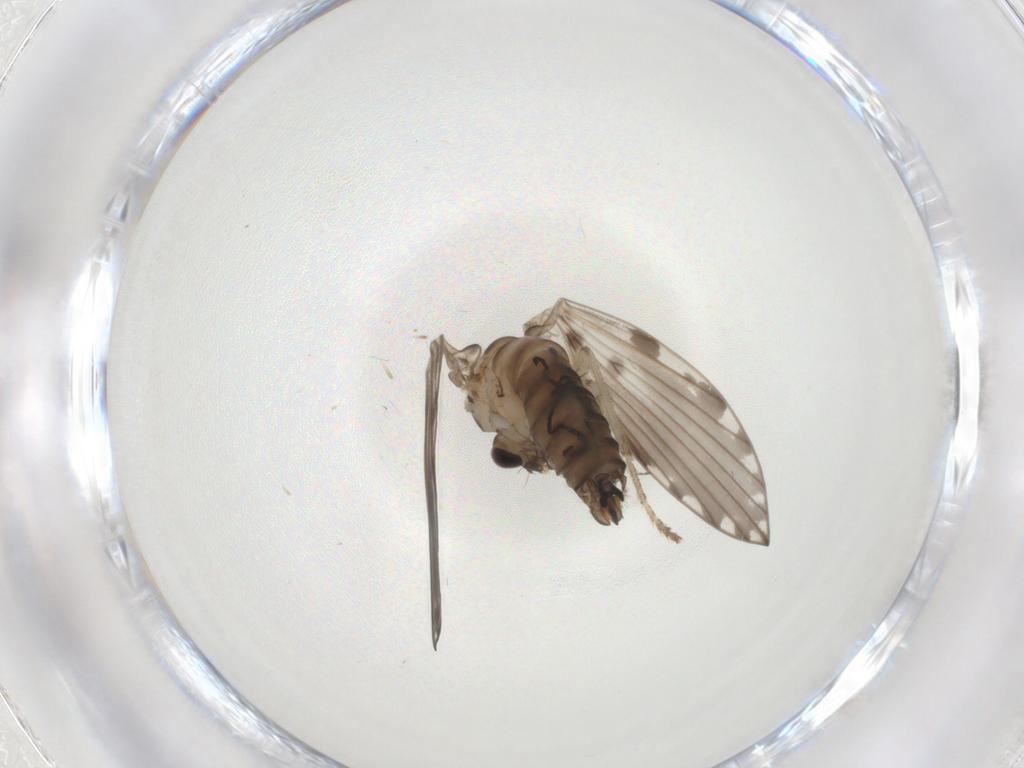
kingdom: Animalia
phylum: Arthropoda
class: Insecta
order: Diptera
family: Psychodidae
